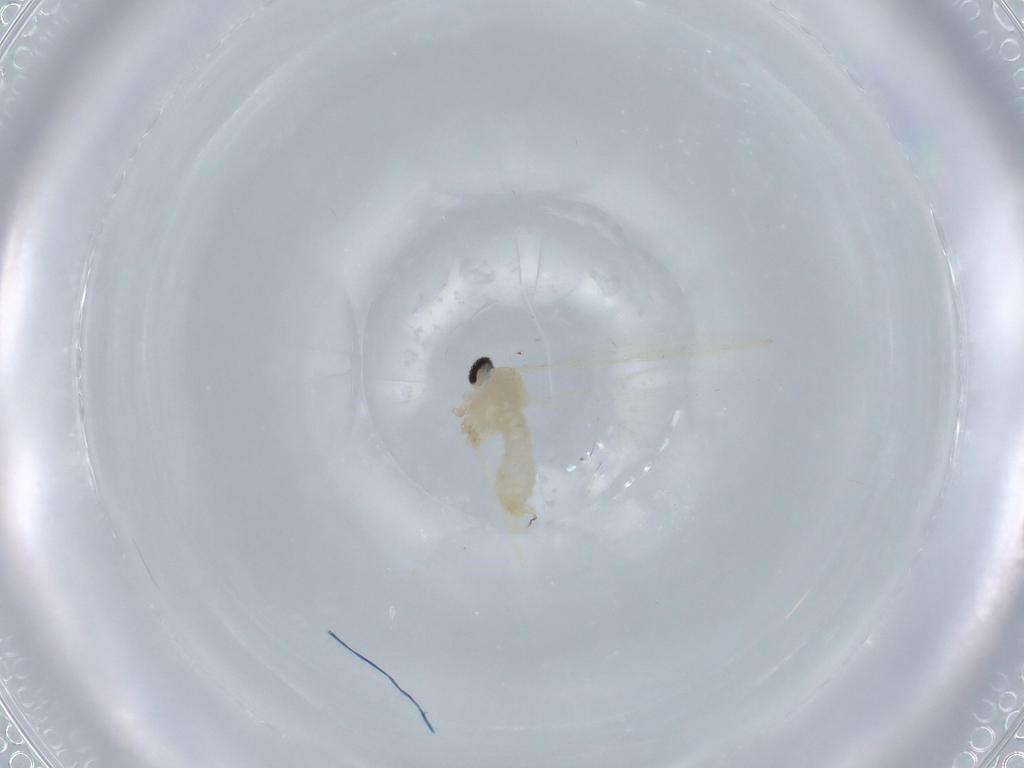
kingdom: Animalia
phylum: Arthropoda
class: Insecta
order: Diptera
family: Cecidomyiidae
